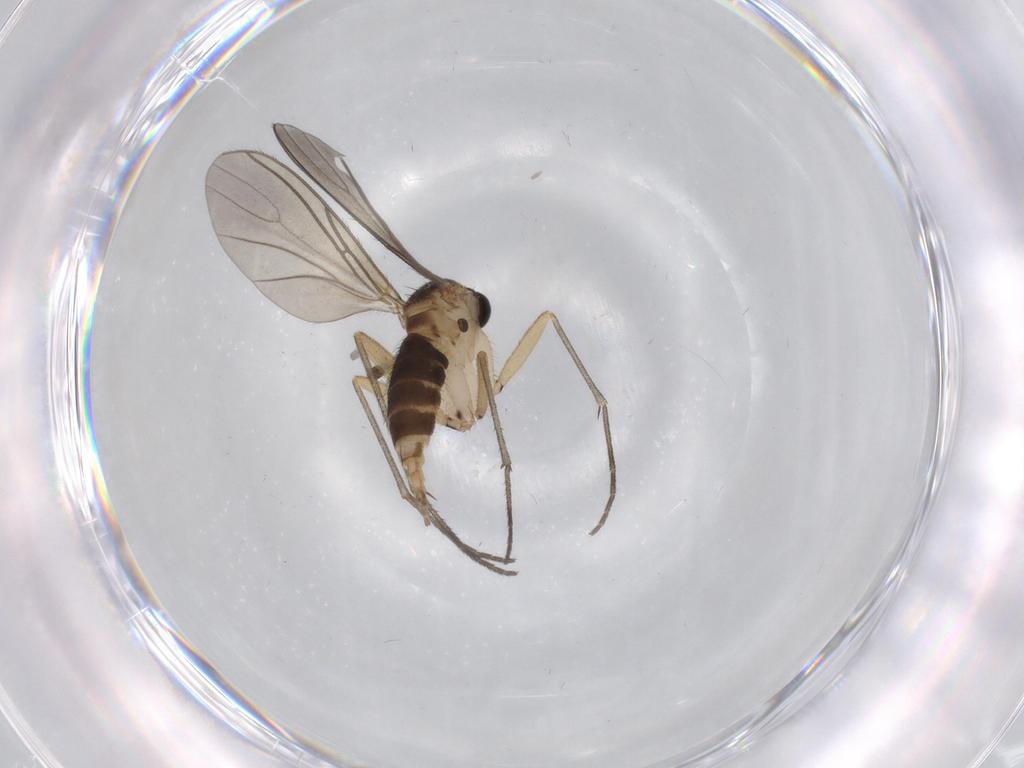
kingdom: Animalia
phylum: Arthropoda
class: Insecta
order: Diptera
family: Sciaridae
